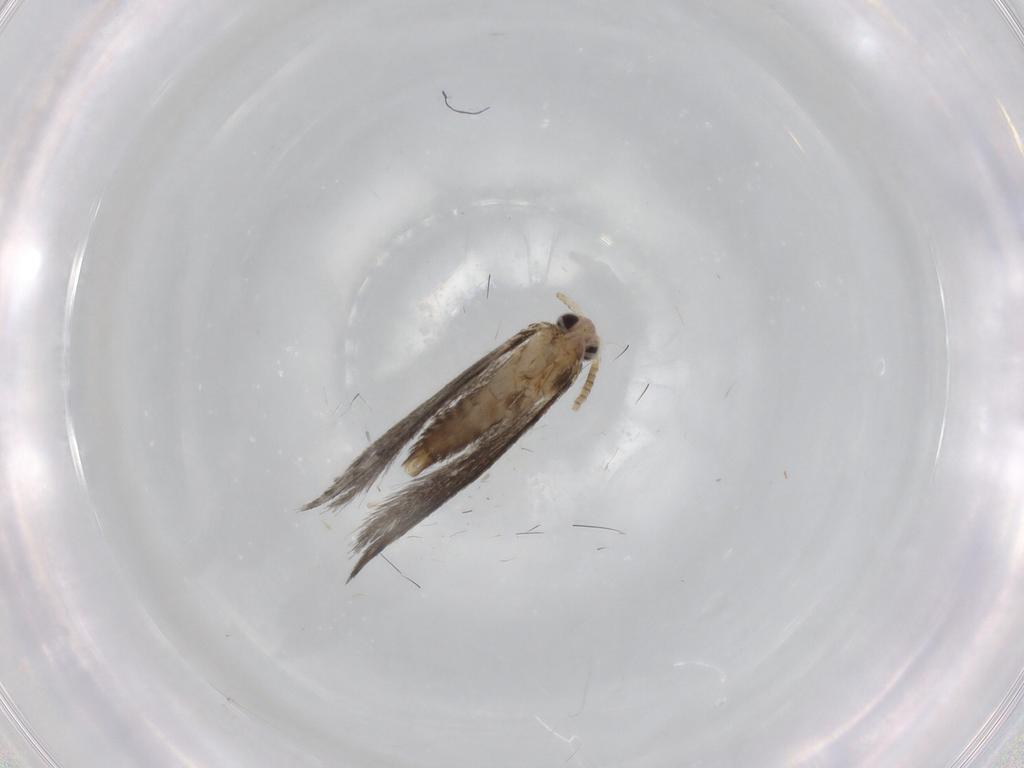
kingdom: Animalia
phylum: Arthropoda
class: Insecta
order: Lepidoptera
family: Tineidae
